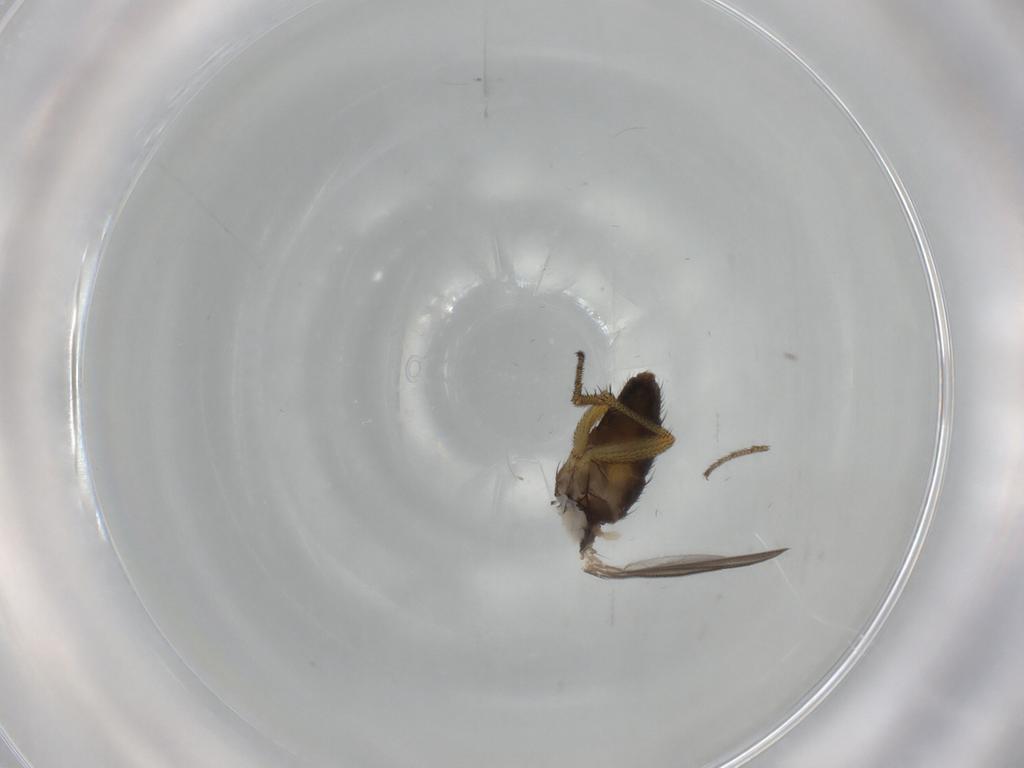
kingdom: Animalia
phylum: Arthropoda
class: Insecta
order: Diptera
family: Dolichopodidae
